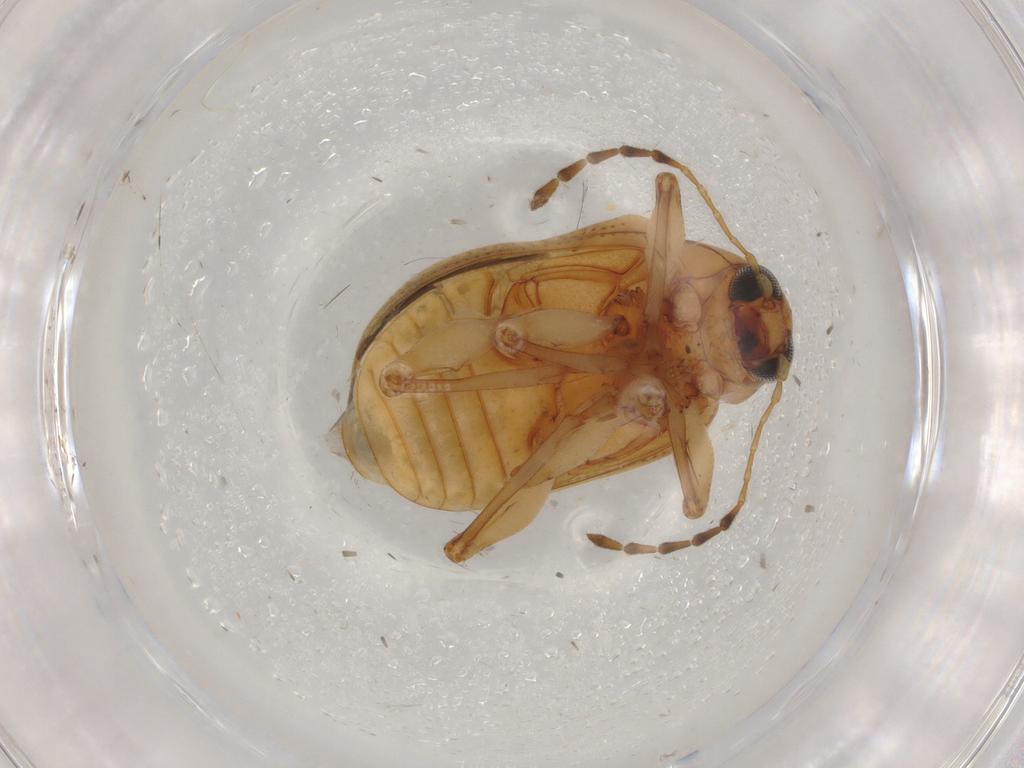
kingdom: Animalia
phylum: Arthropoda
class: Insecta
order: Coleoptera
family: Chrysomelidae
